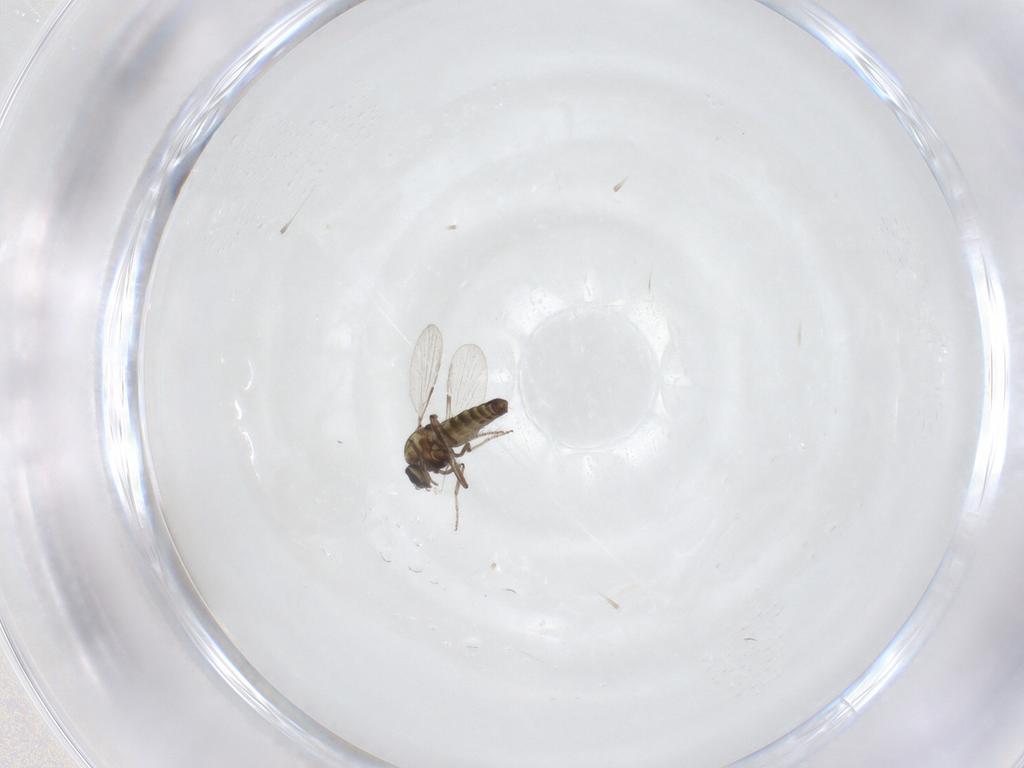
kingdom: Animalia
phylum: Arthropoda
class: Insecta
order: Diptera
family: Ceratopogonidae
